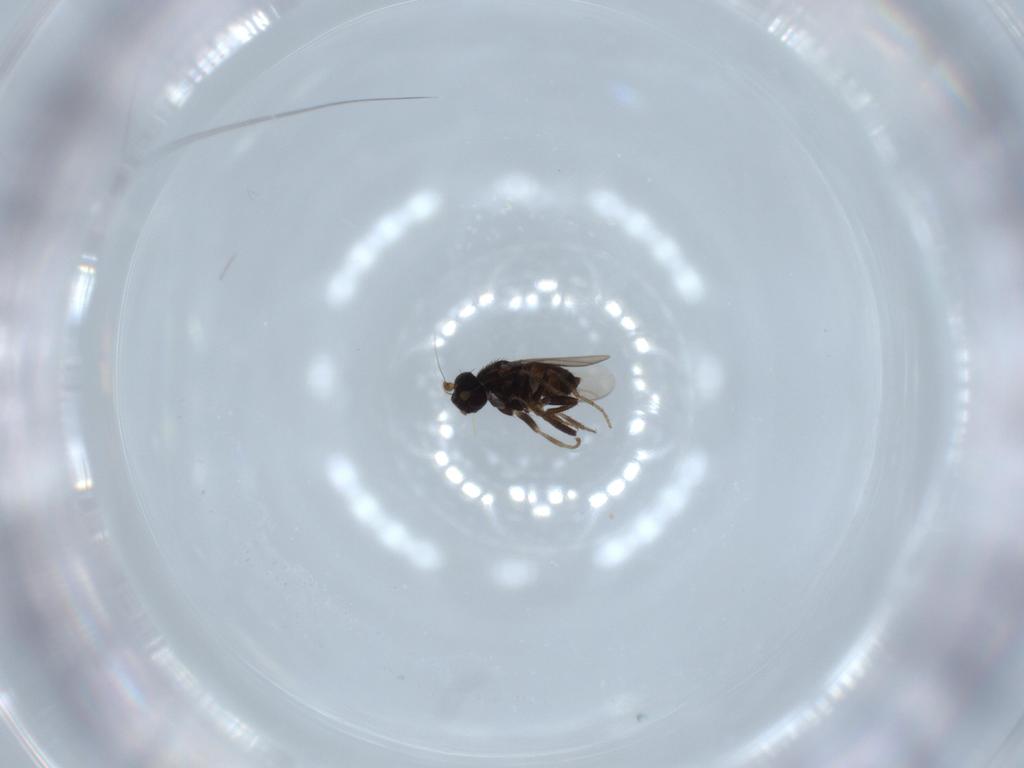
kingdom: Animalia
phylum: Arthropoda
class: Insecta
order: Diptera
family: Sphaeroceridae
